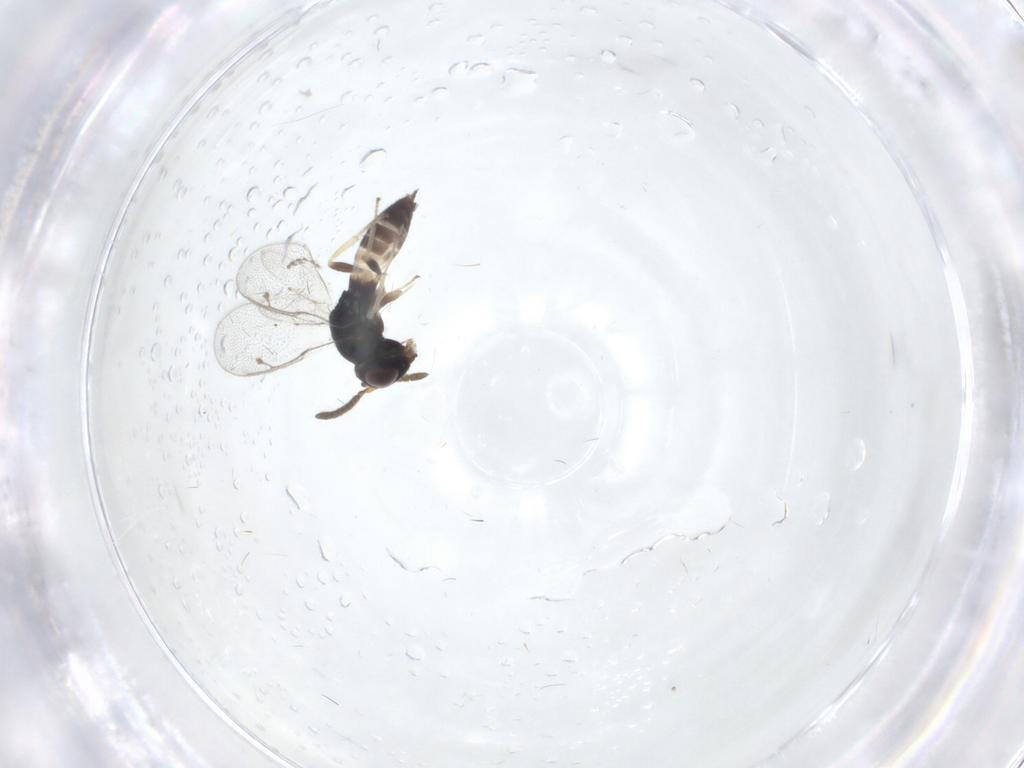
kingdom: Animalia
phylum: Arthropoda
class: Insecta
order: Hymenoptera
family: Pteromalidae
